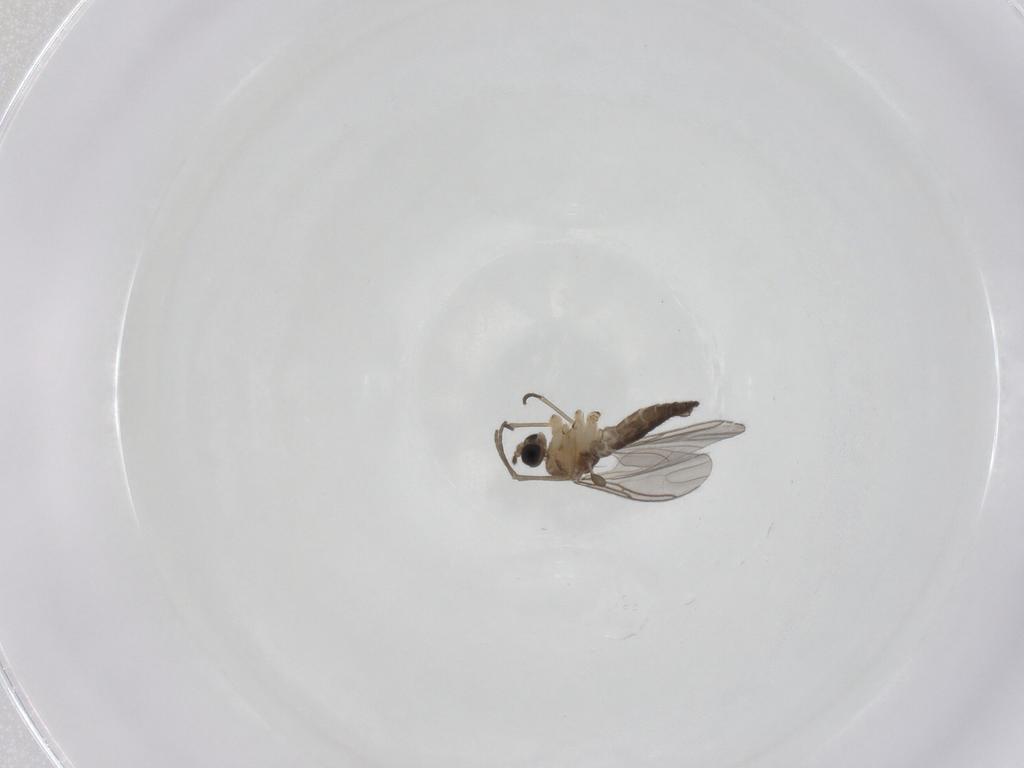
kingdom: Animalia
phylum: Arthropoda
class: Insecta
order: Diptera
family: Sciaridae
